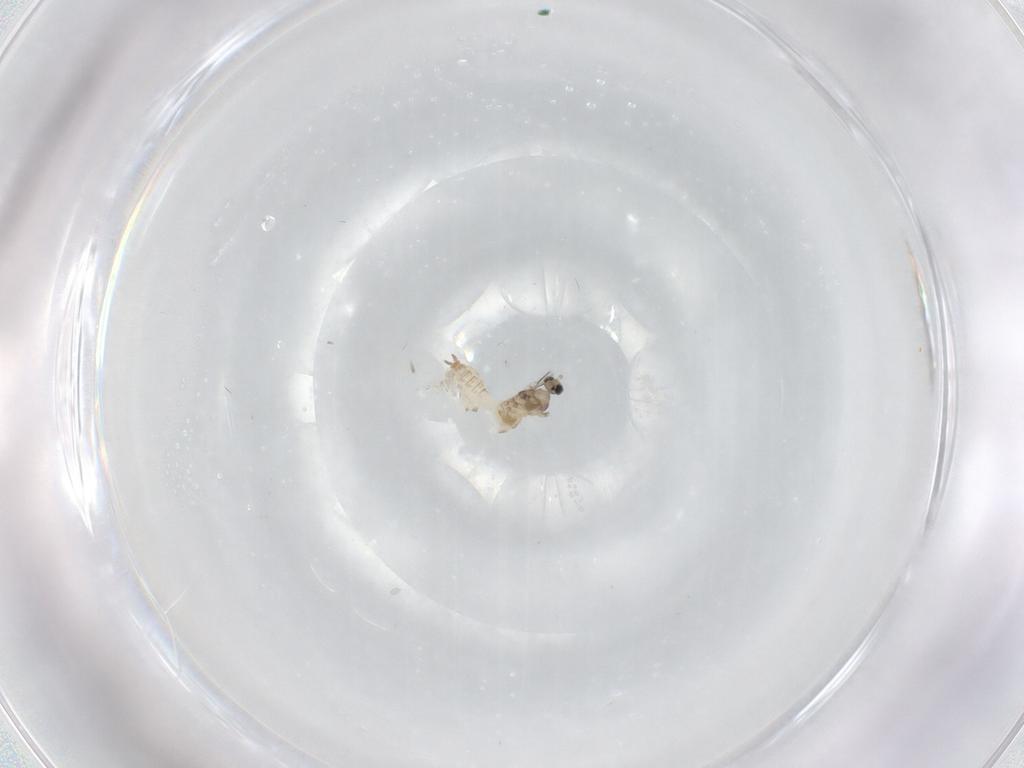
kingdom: Animalia
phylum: Arthropoda
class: Insecta
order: Diptera
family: Cecidomyiidae
